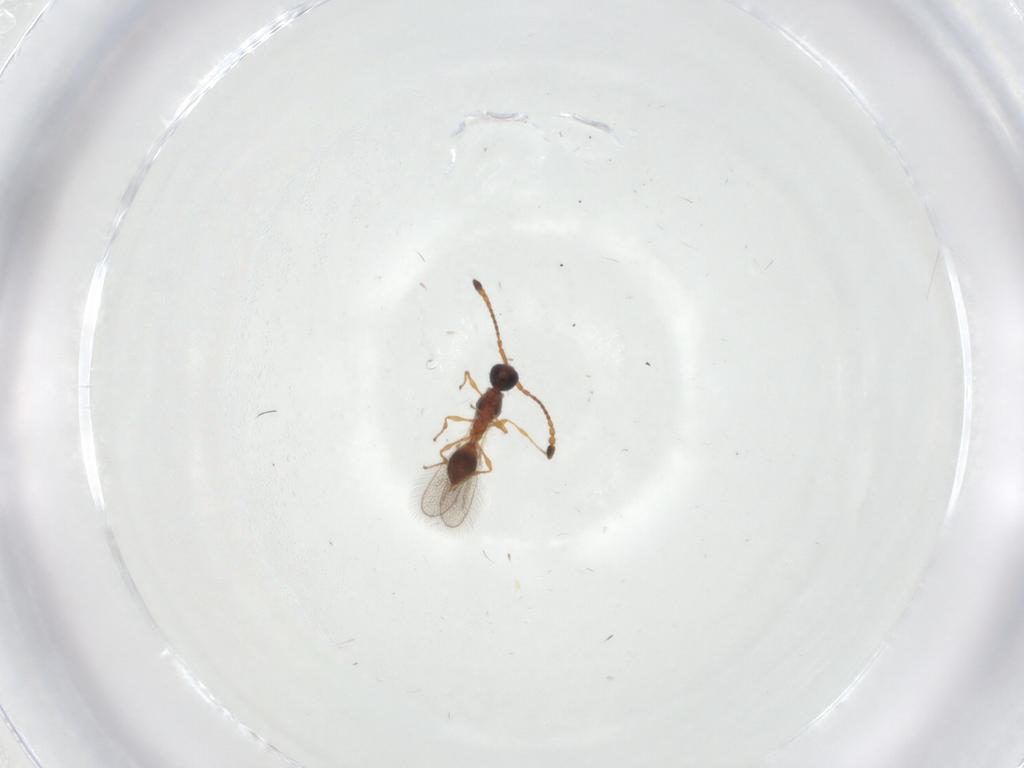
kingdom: Animalia
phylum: Arthropoda
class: Insecta
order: Hymenoptera
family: Diapriidae
